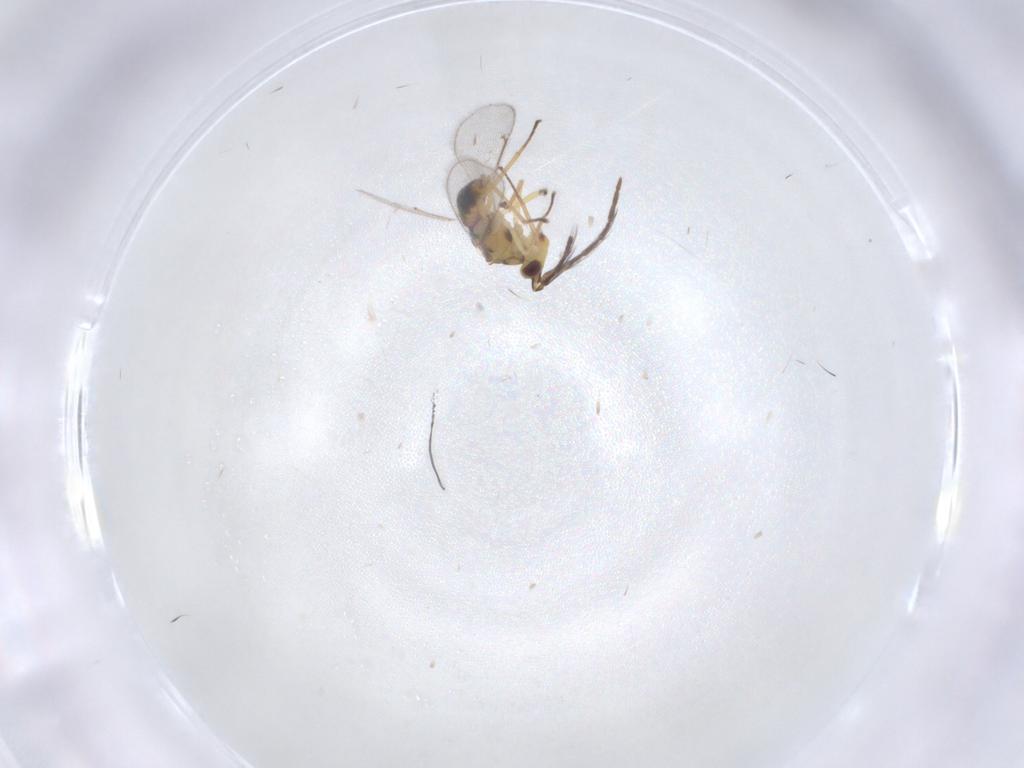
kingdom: Animalia
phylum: Arthropoda
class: Insecta
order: Hymenoptera
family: Eulophidae
